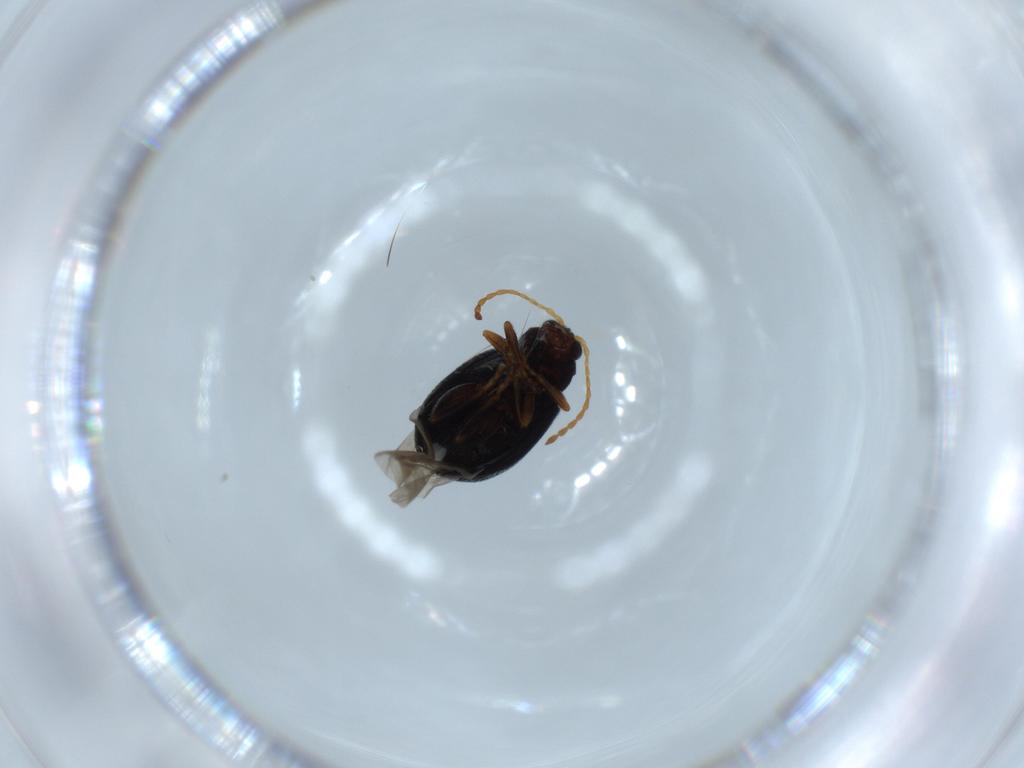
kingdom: Animalia
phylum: Arthropoda
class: Insecta
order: Coleoptera
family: Chrysomelidae
